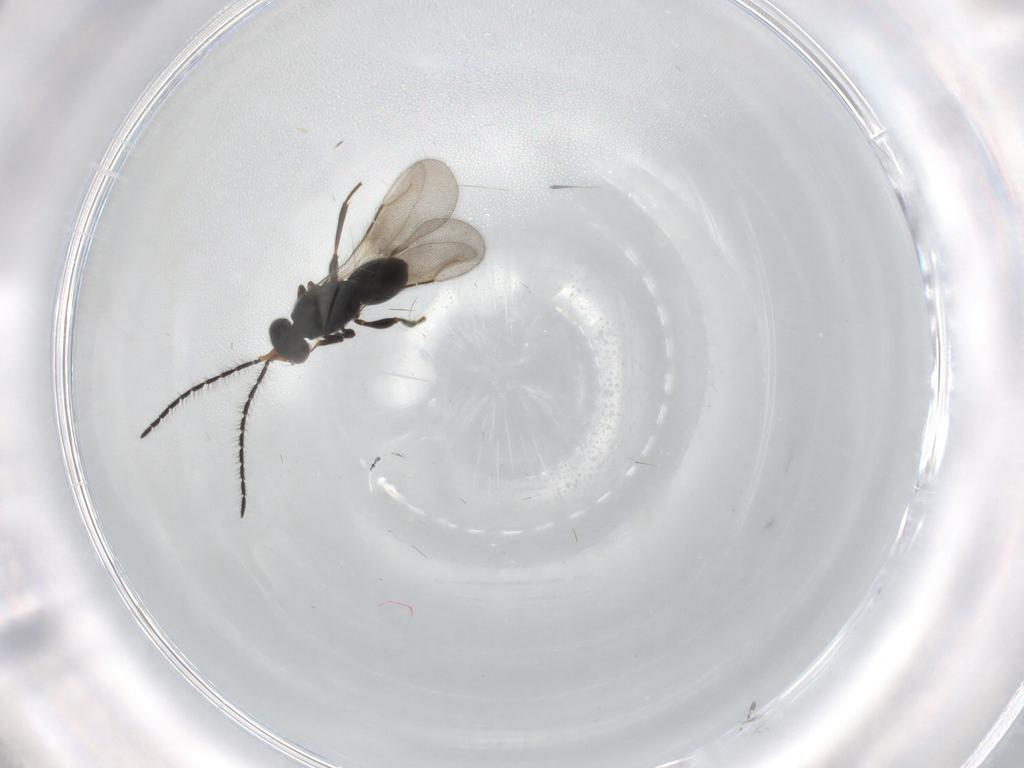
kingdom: Animalia
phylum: Arthropoda
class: Insecta
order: Hymenoptera
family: Ceraphronidae
